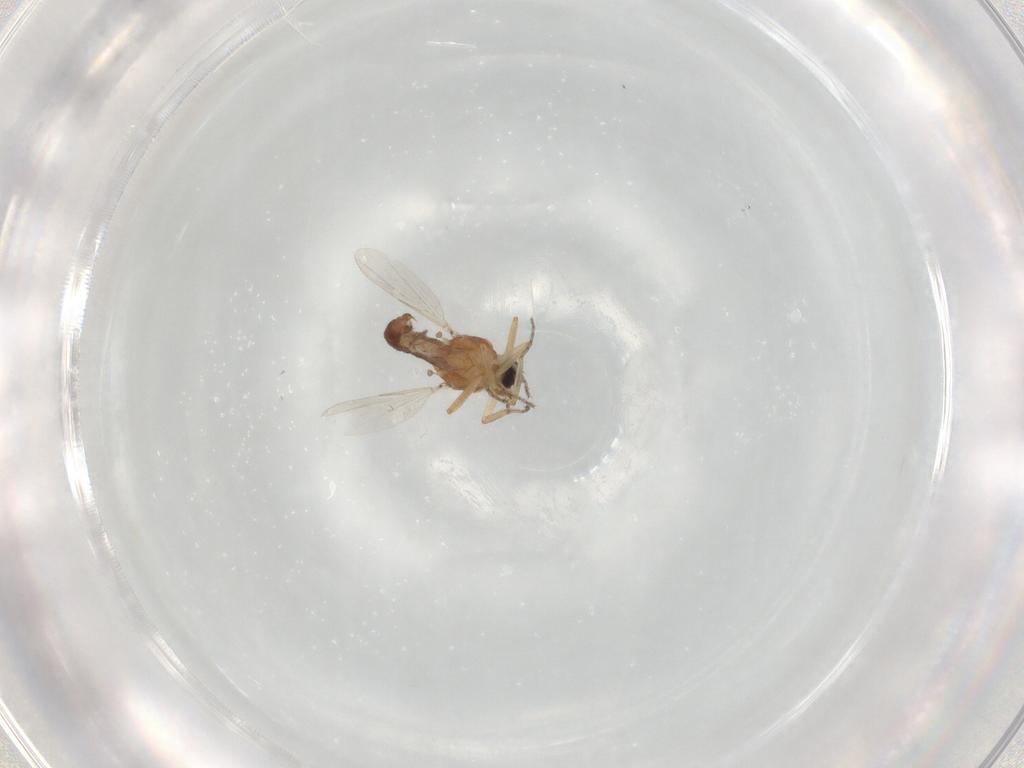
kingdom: Animalia
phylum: Arthropoda
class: Insecta
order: Diptera
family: Ceratopogonidae
